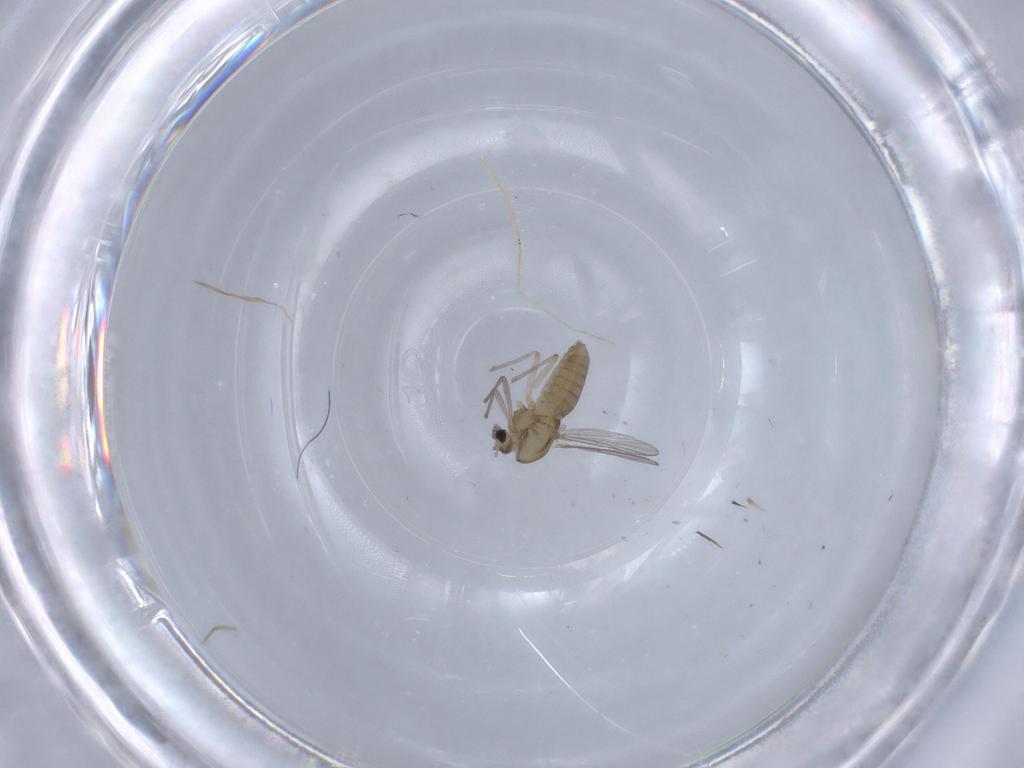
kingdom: Animalia
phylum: Arthropoda
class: Insecta
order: Diptera
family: Chironomidae
